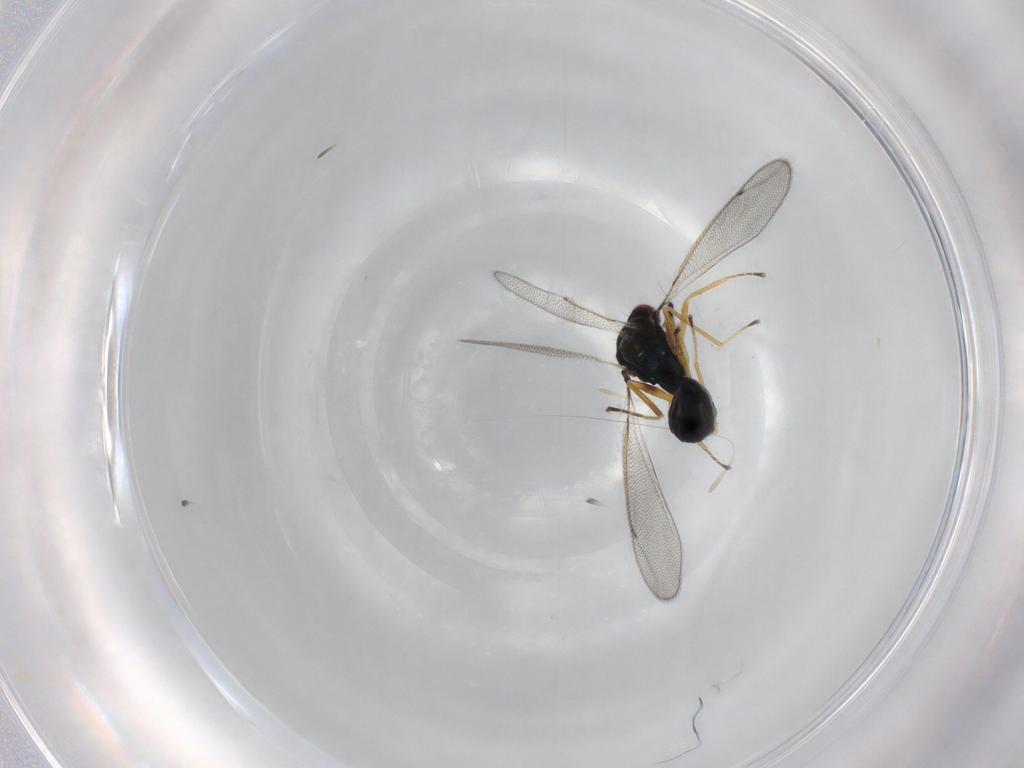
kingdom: Animalia
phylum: Arthropoda
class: Insecta
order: Hymenoptera
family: Eulophidae
